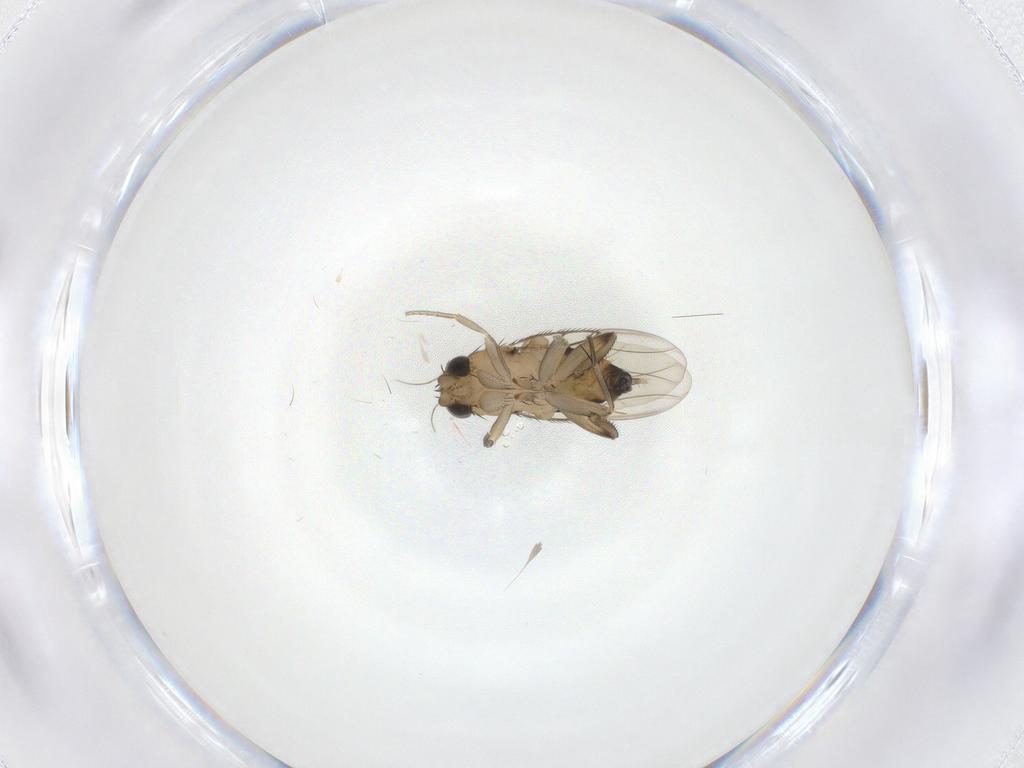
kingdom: Animalia
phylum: Arthropoda
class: Insecta
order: Diptera
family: Phoridae
